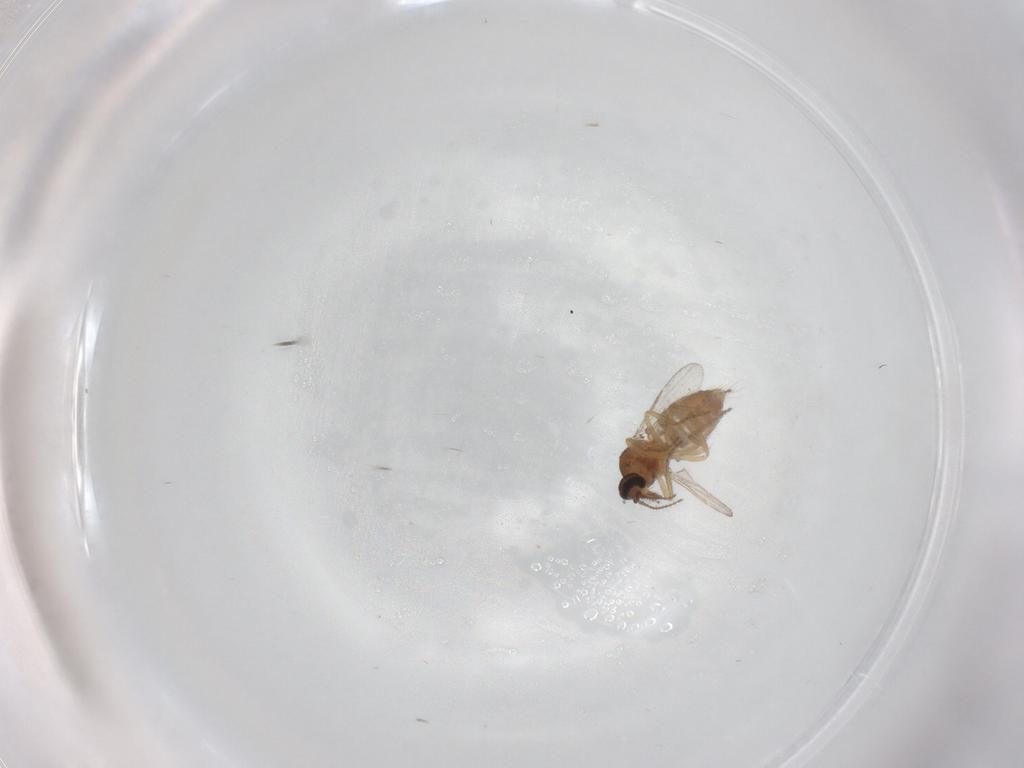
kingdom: Animalia
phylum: Arthropoda
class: Insecta
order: Diptera
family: Ceratopogonidae
